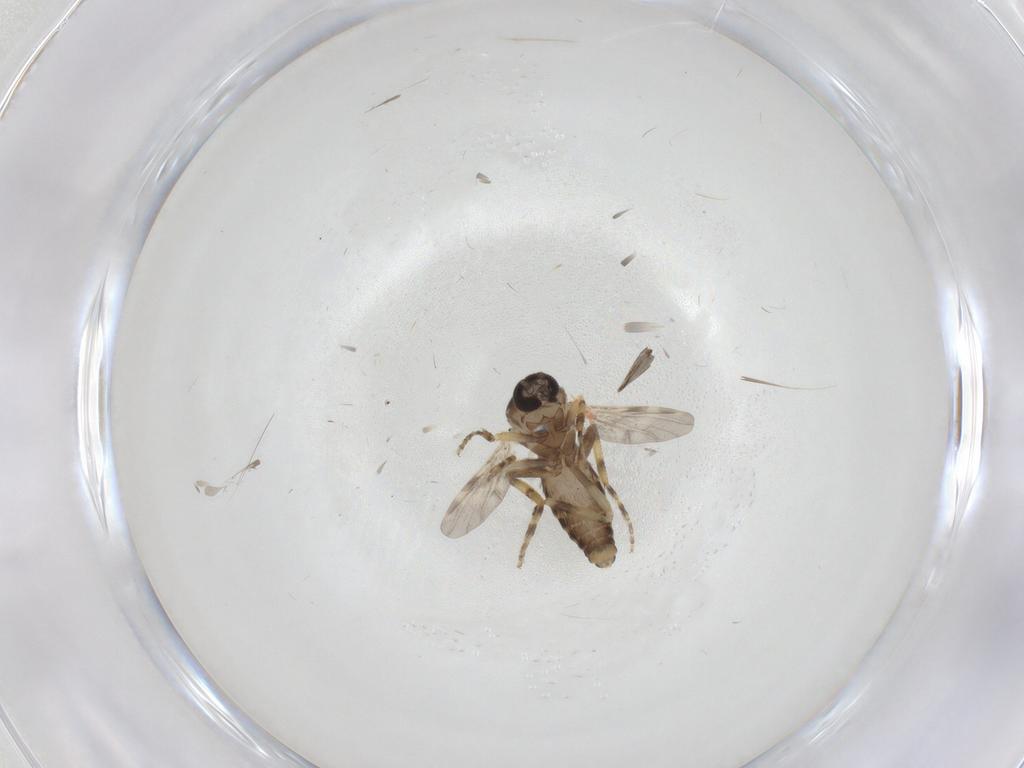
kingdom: Animalia
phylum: Arthropoda
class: Insecta
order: Diptera
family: Ceratopogonidae
